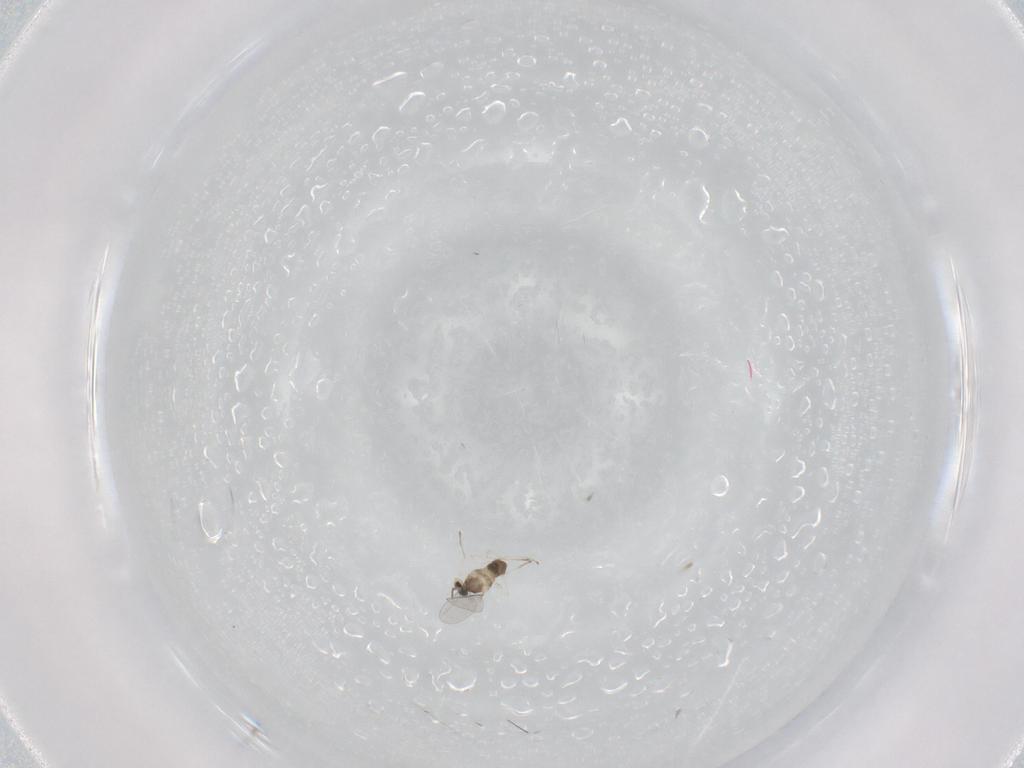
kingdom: Animalia
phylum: Arthropoda
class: Insecta
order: Diptera
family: Cecidomyiidae
